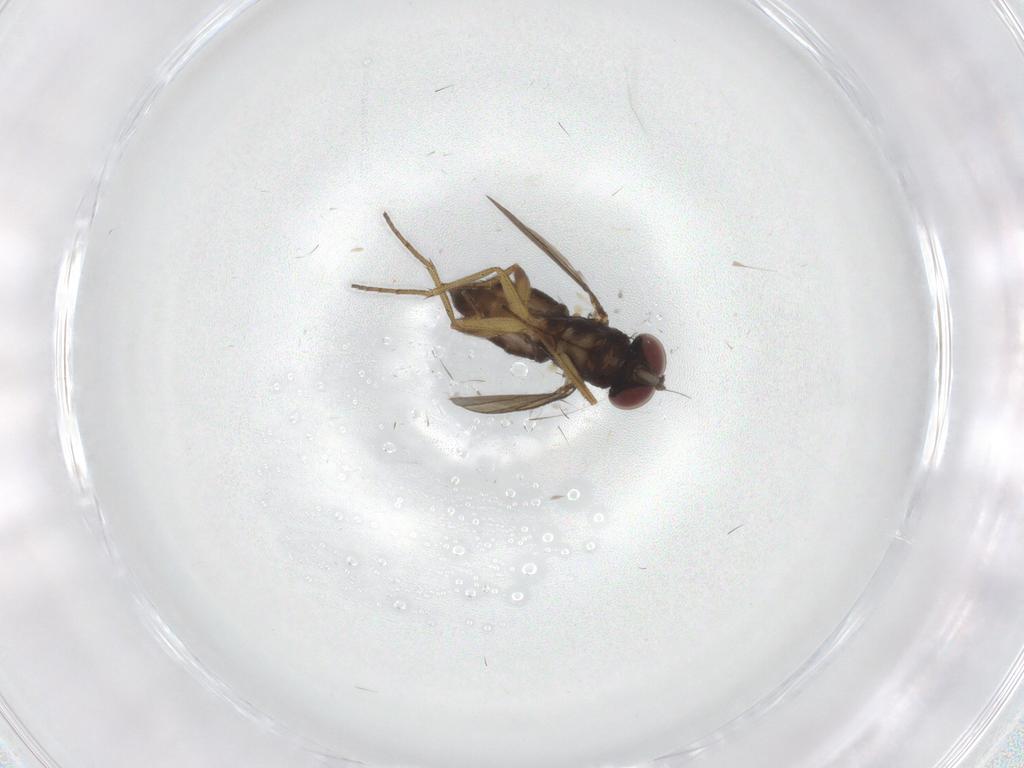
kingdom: Animalia
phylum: Arthropoda
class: Insecta
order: Diptera
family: Dolichopodidae
